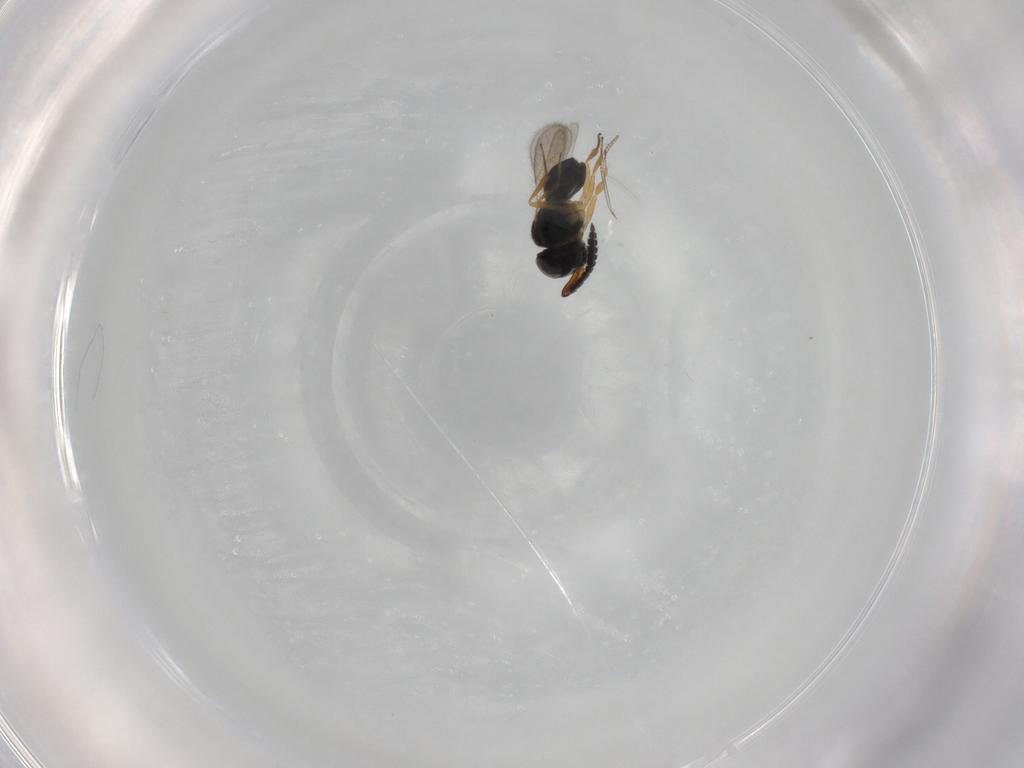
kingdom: Animalia
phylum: Arthropoda
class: Insecta
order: Hymenoptera
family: Scelionidae
